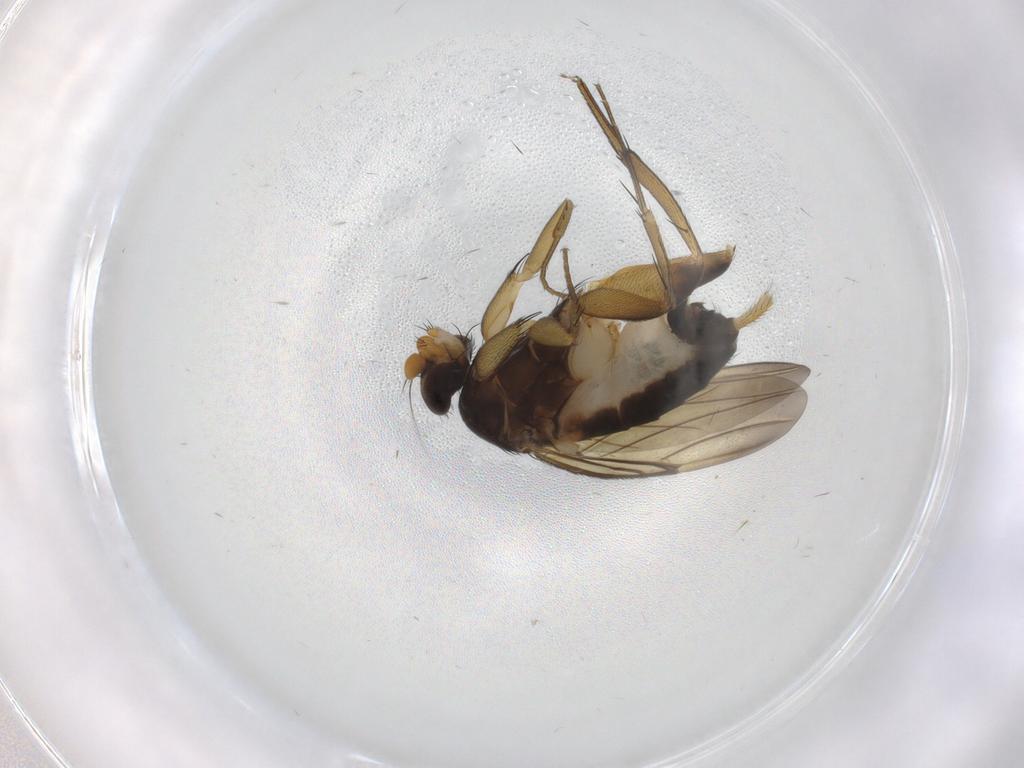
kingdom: Animalia
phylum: Arthropoda
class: Insecta
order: Diptera
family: Phoridae
